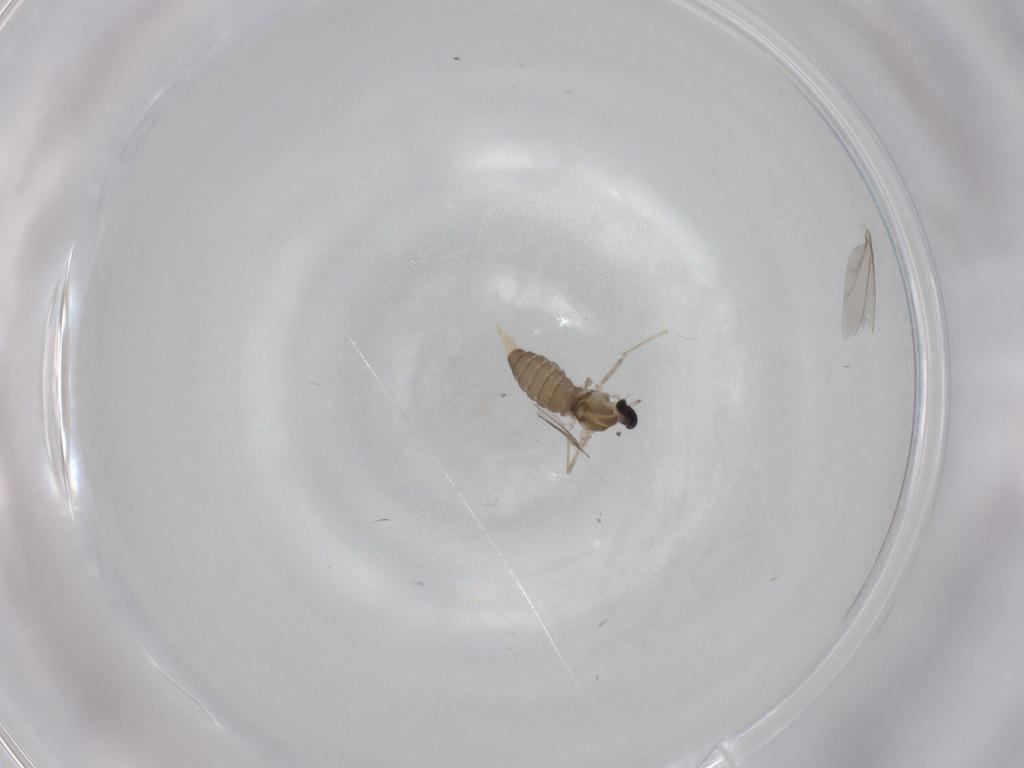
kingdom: Animalia
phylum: Arthropoda
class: Insecta
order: Diptera
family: Cecidomyiidae
